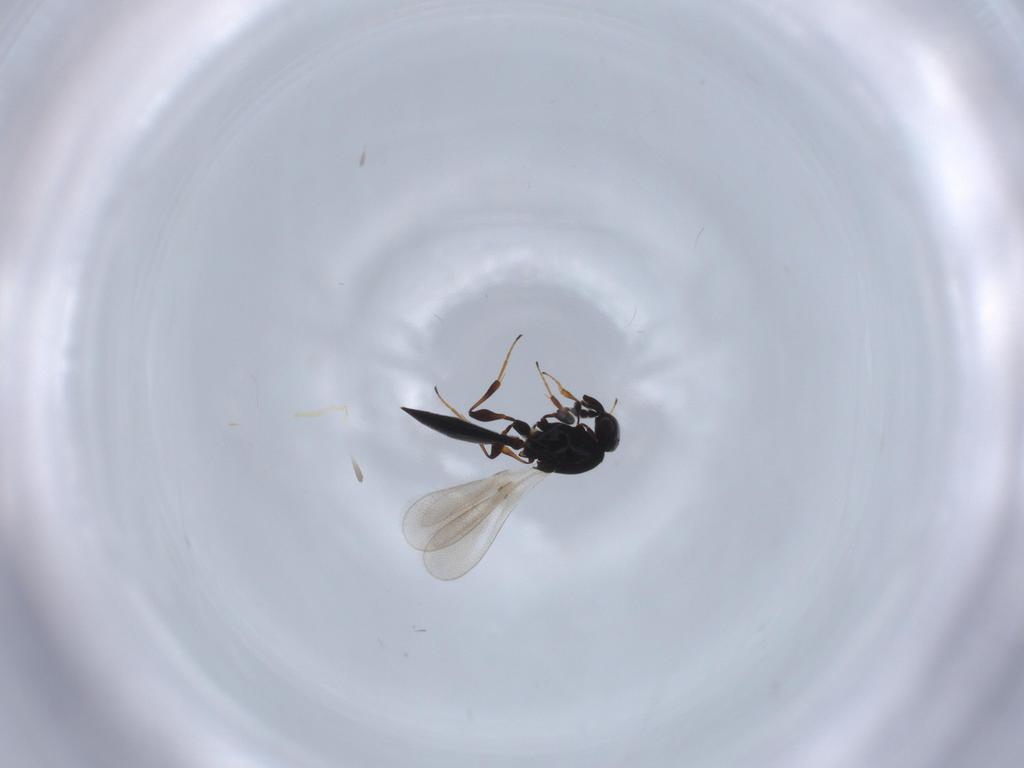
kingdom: Animalia
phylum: Arthropoda
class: Insecta
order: Hymenoptera
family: Platygastridae
